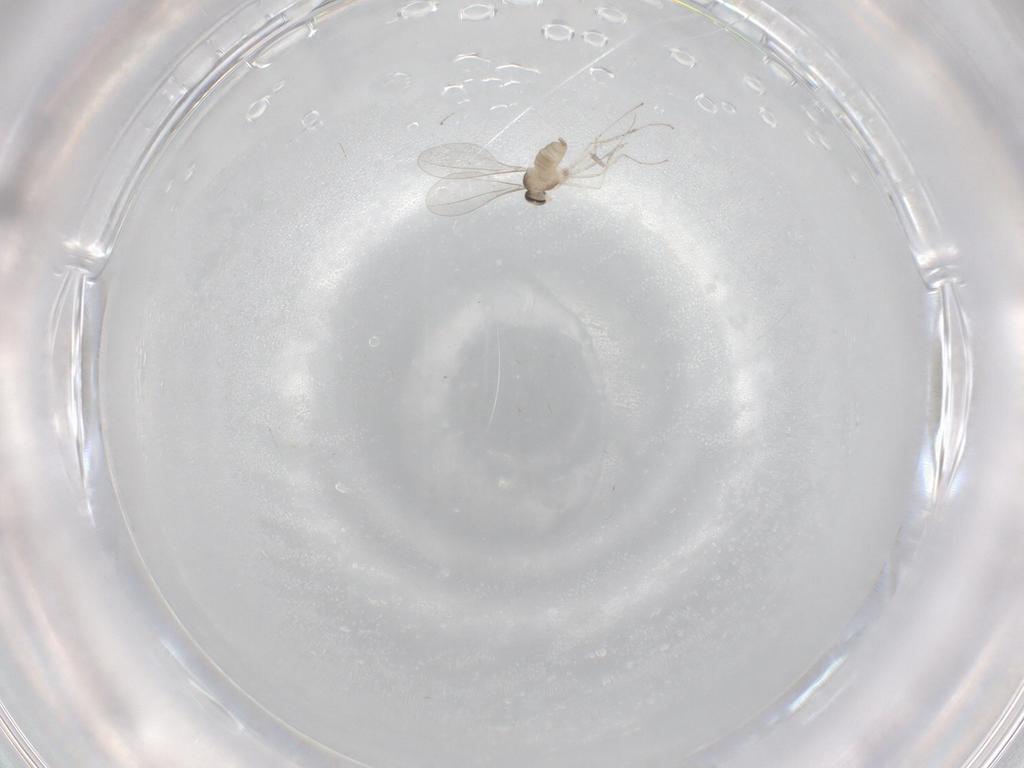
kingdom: Animalia
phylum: Arthropoda
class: Insecta
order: Diptera
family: Cecidomyiidae
